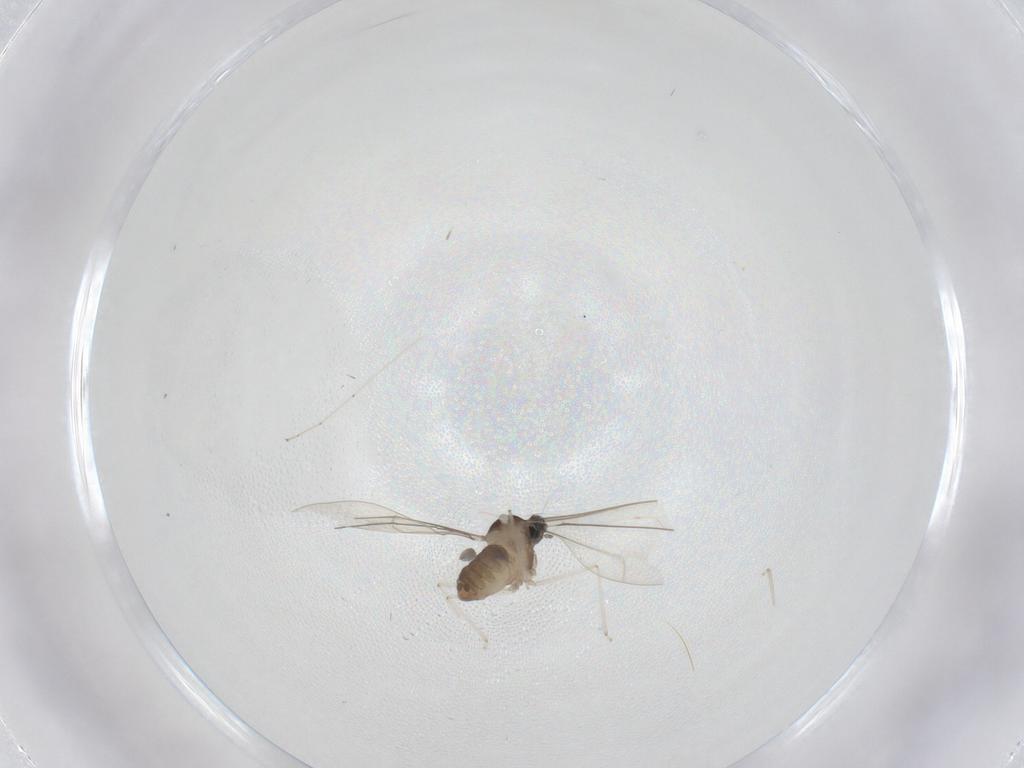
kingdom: Animalia
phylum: Arthropoda
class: Insecta
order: Diptera
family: Cecidomyiidae
